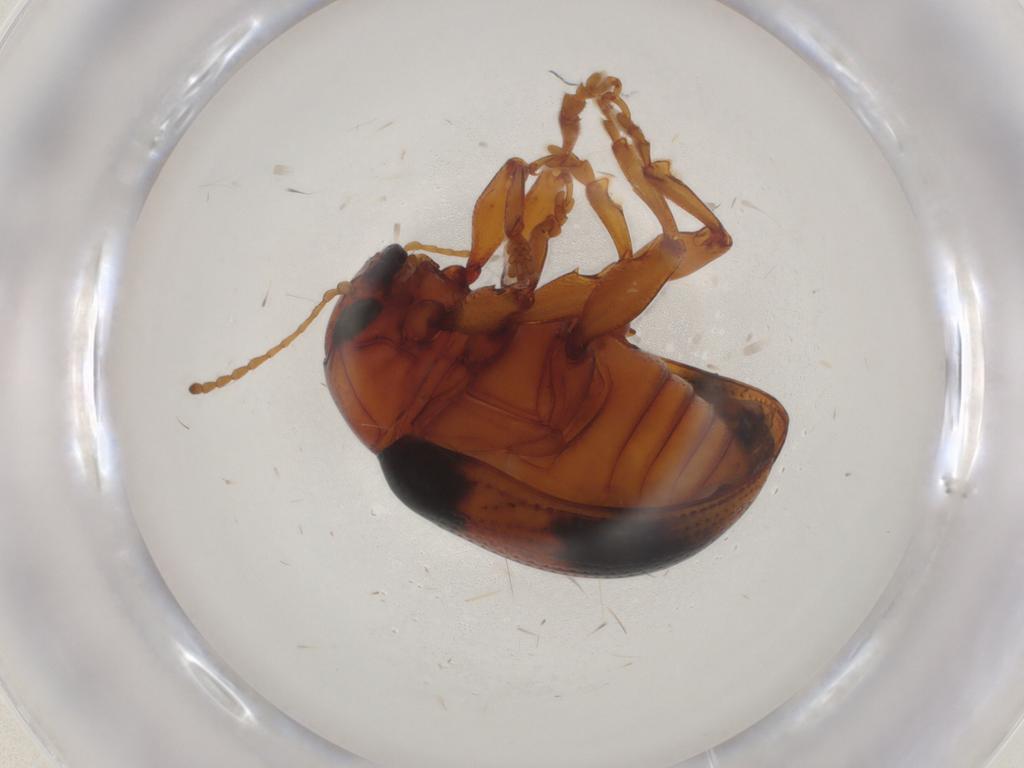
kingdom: Animalia
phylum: Arthropoda
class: Insecta
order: Coleoptera
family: Chrysomelidae
